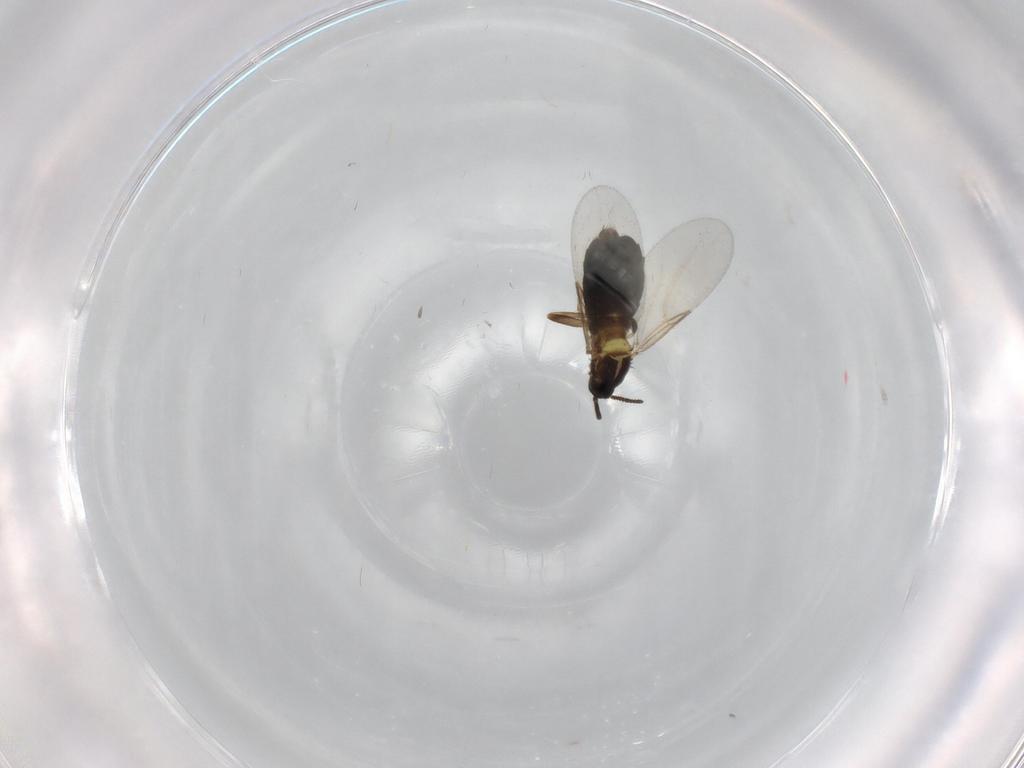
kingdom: Animalia
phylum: Arthropoda
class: Insecta
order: Diptera
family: Scatopsidae
